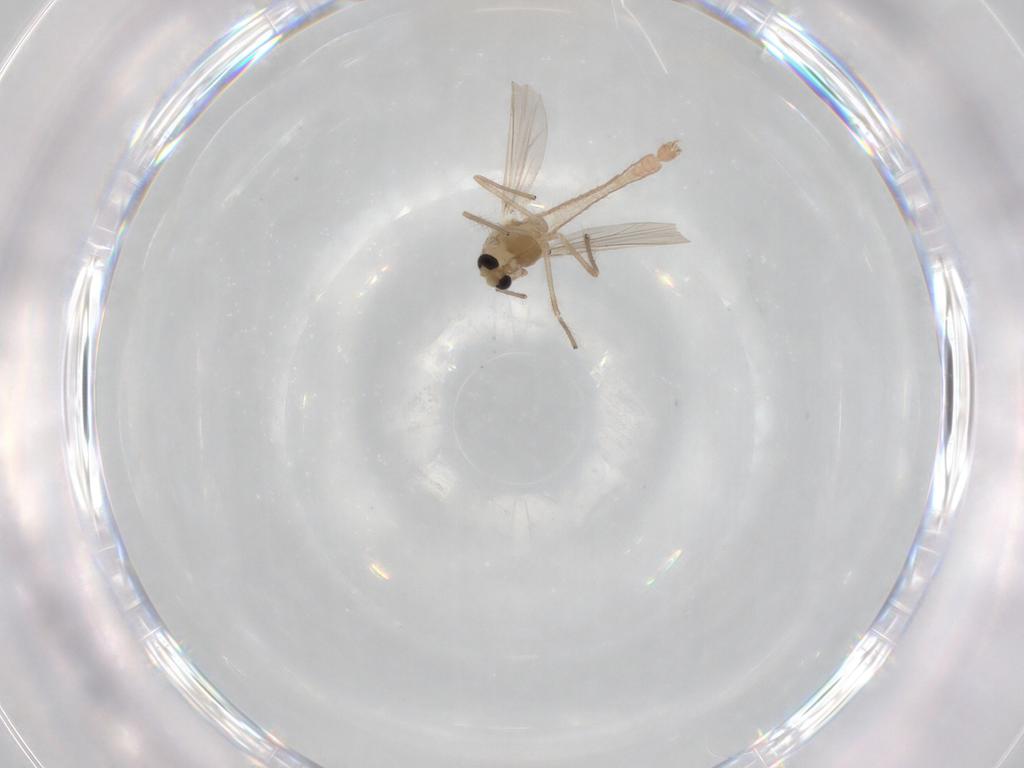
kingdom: Animalia
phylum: Arthropoda
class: Insecta
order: Diptera
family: Chironomidae
